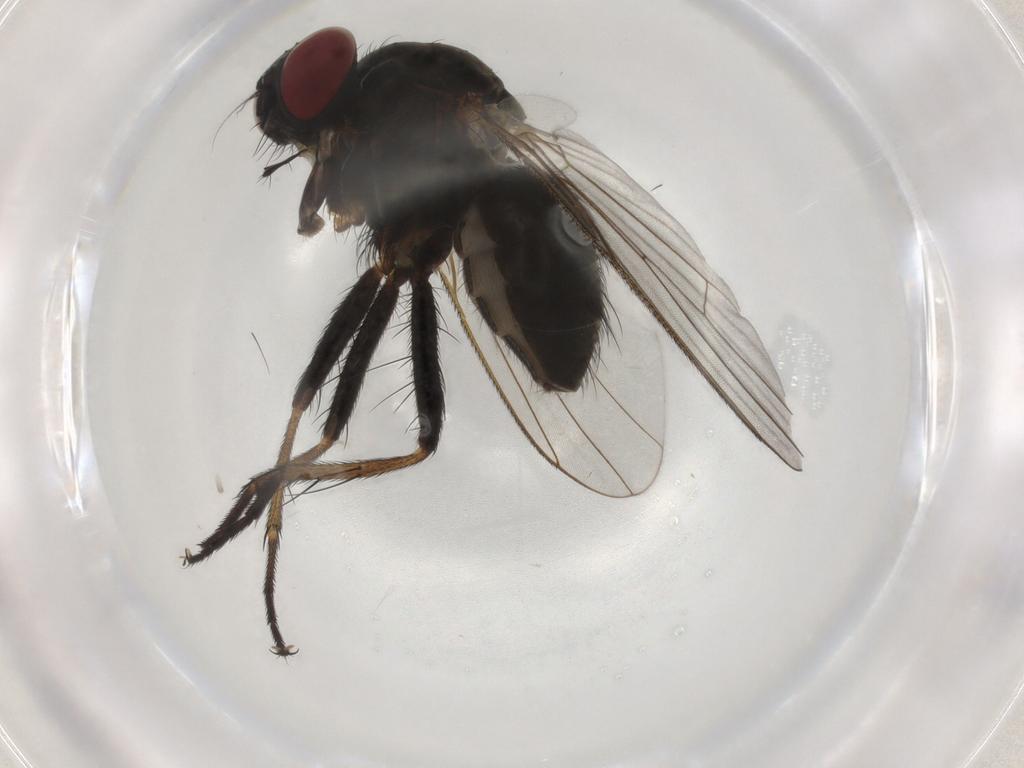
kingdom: Animalia
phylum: Arthropoda
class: Insecta
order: Diptera
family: Muscidae
